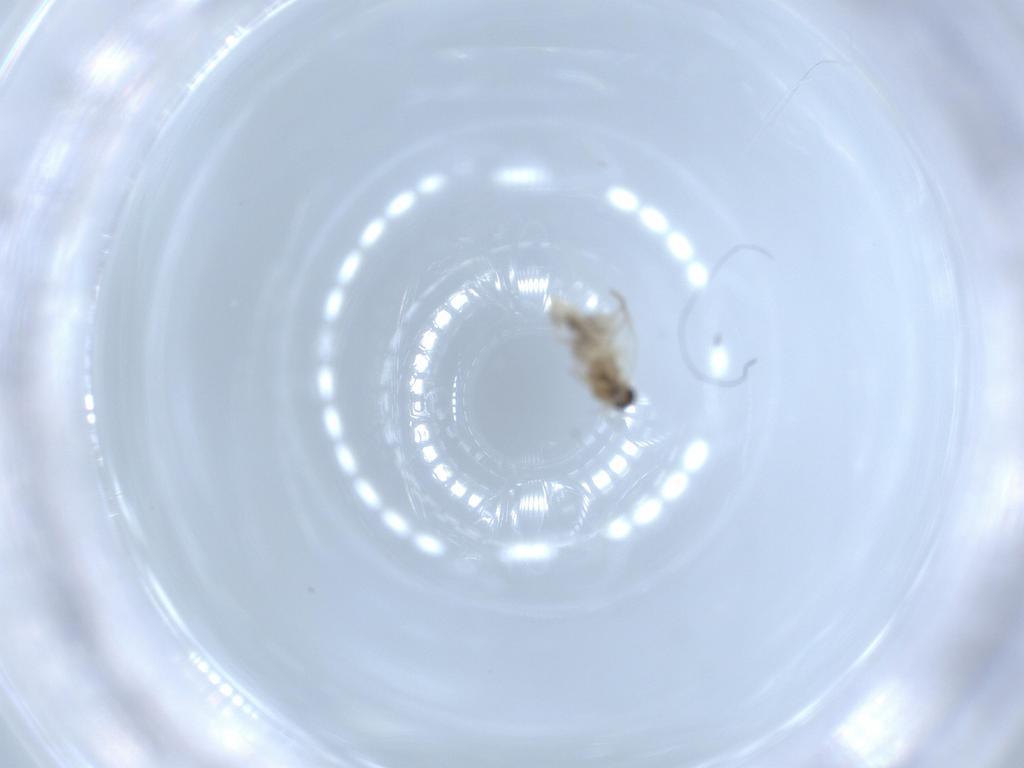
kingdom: Animalia
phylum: Arthropoda
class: Insecta
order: Diptera
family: Cecidomyiidae
